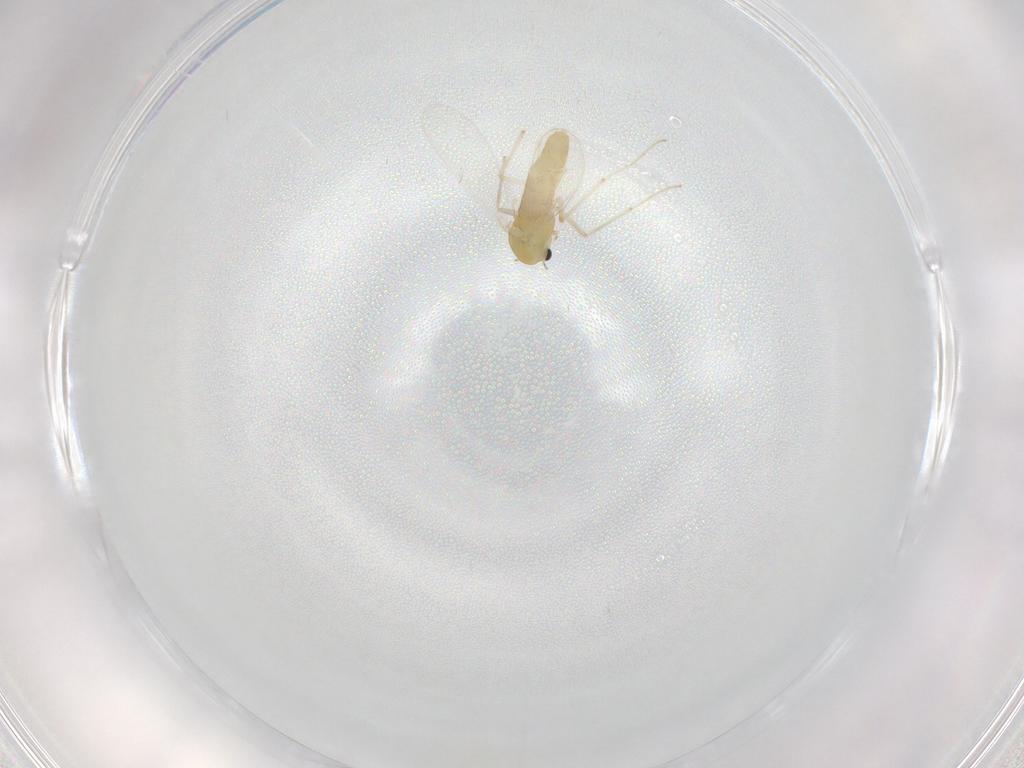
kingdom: Animalia
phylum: Arthropoda
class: Insecta
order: Diptera
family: Chironomidae
